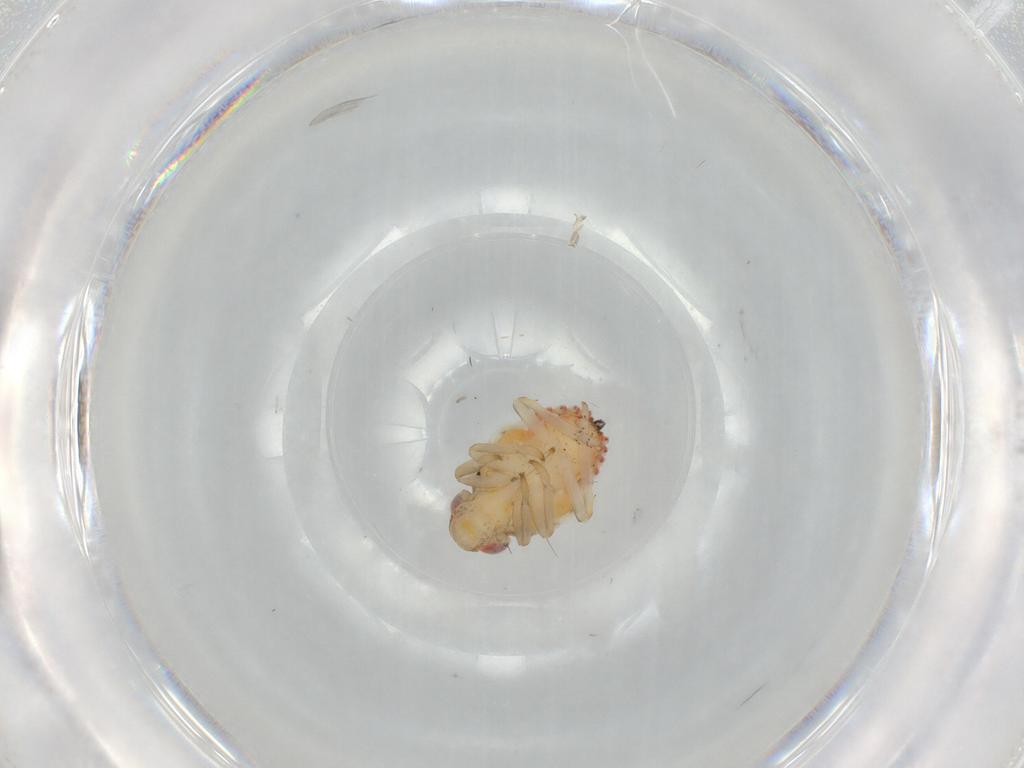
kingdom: Animalia
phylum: Arthropoda
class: Insecta
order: Hemiptera
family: Issidae
